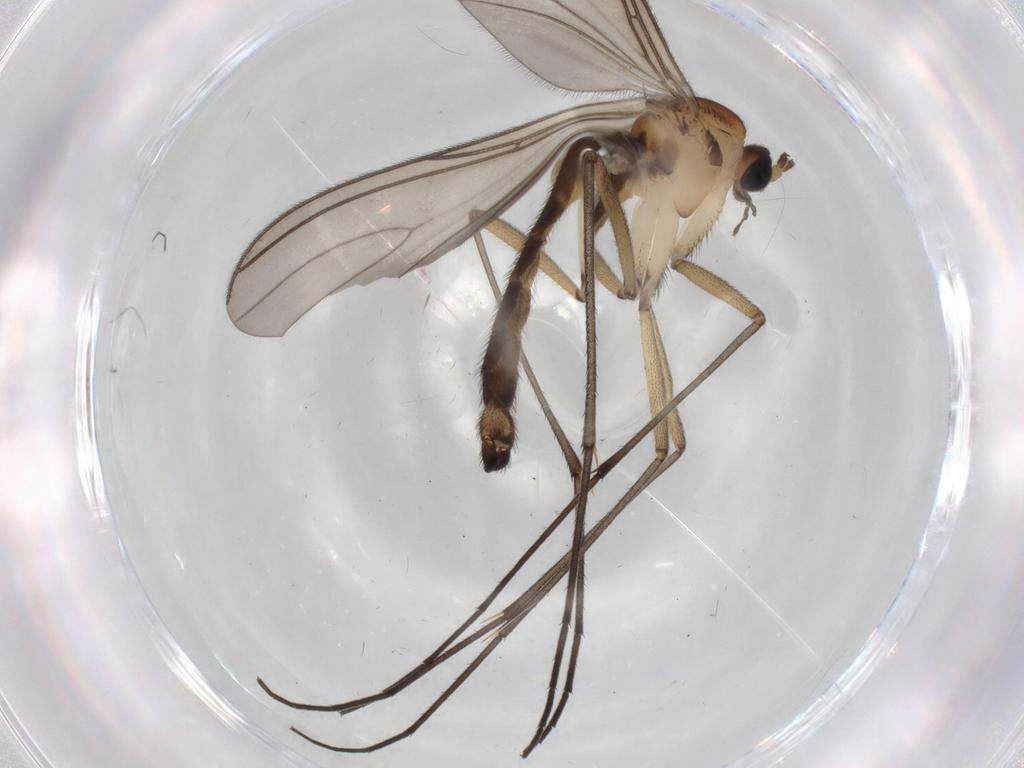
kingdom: Animalia
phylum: Arthropoda
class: Insecta
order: Diptera
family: Sciaridae
